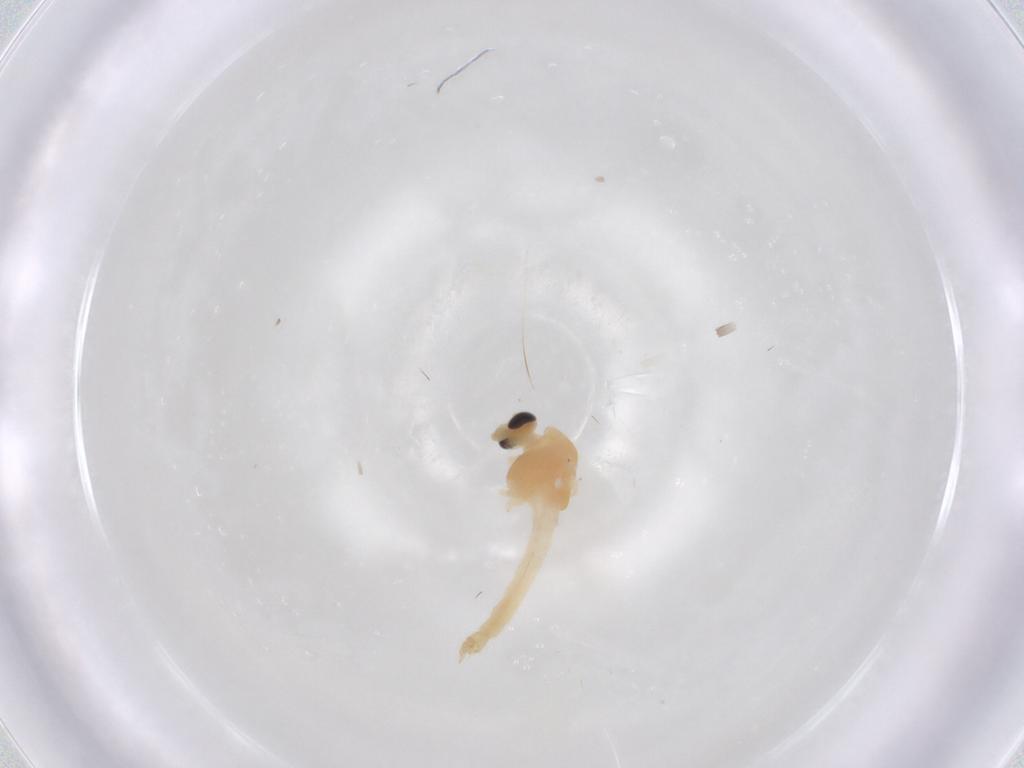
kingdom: Animalia
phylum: Arthropoda
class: Insecta
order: Diptera
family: Chironomidae
